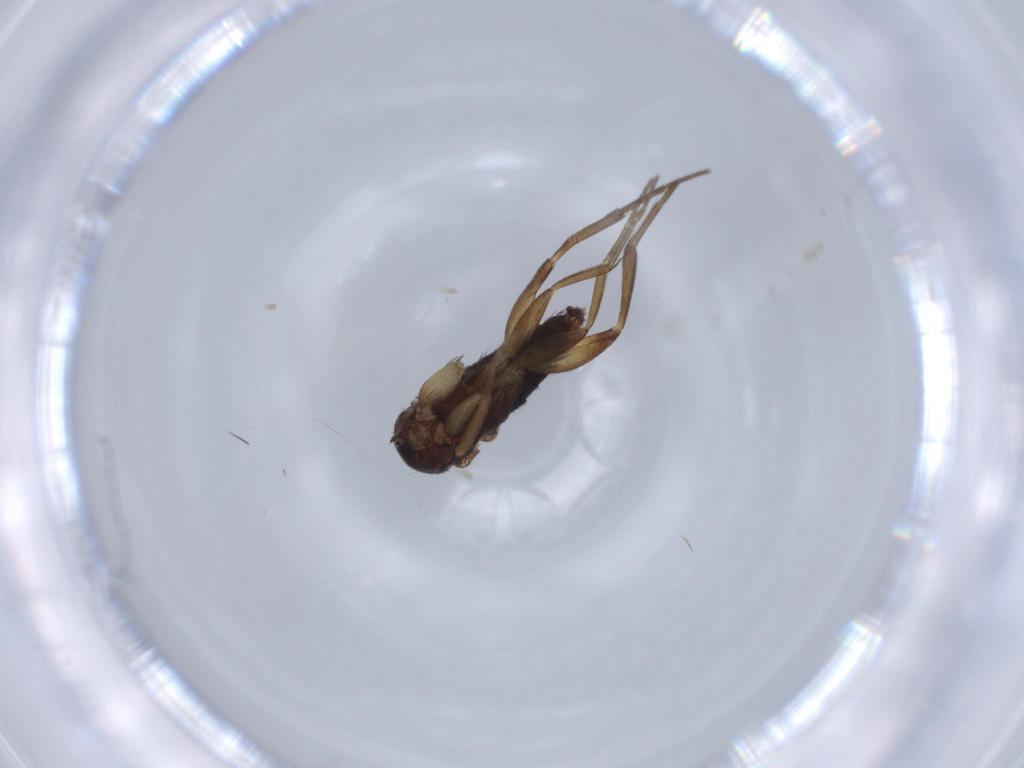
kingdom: Animalia
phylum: Arthropoda
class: Insecta
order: Diptera
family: Phoridae
